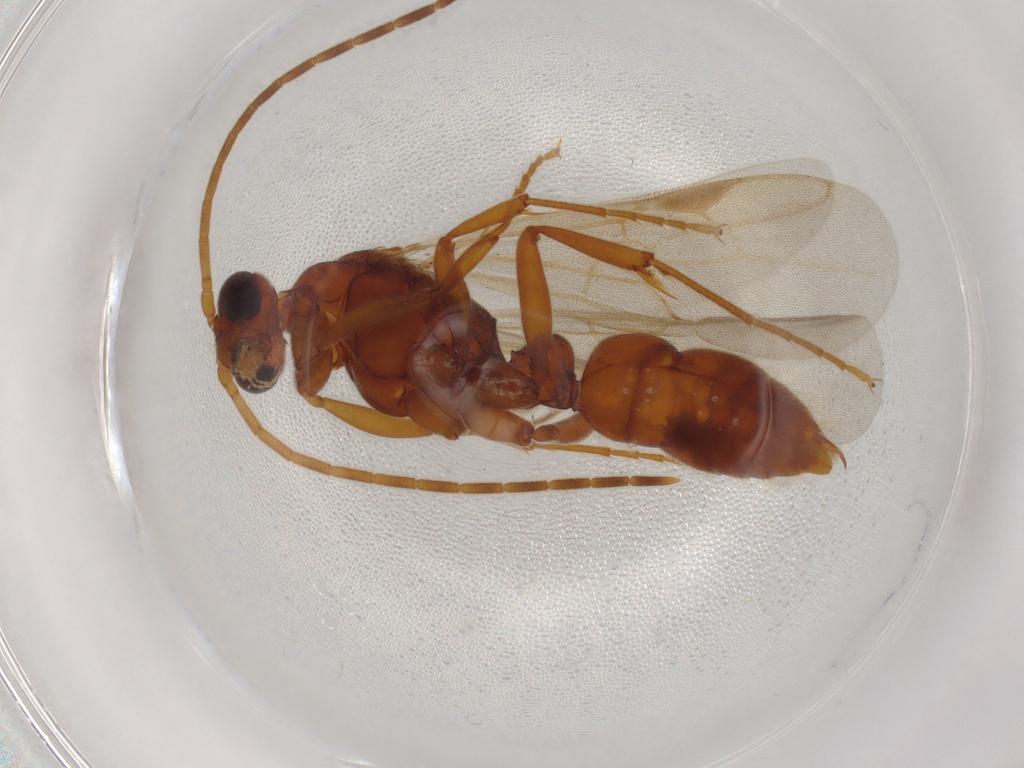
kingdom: Animalia
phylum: Arthropoda
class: Insecta
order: Hymenoptera
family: Formicidae
